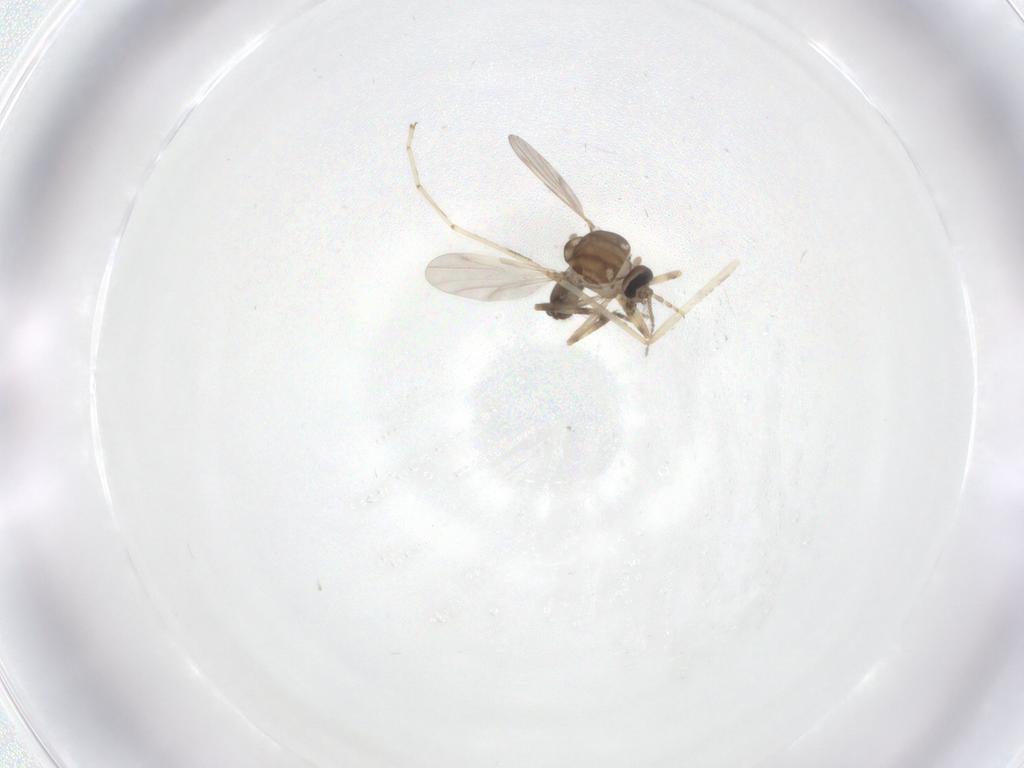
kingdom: Animalia
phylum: Arthropoda
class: Insecta
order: Diptera
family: Ceratopogonidae
